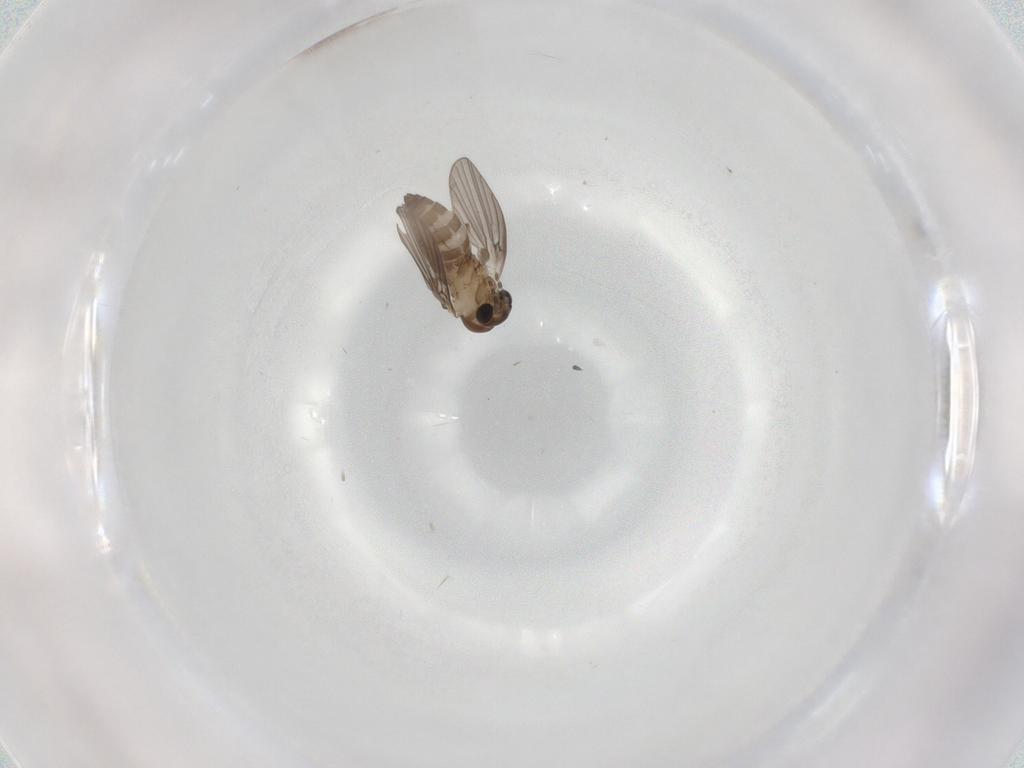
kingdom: Animalia
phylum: Arthropoda
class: Insecta
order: Diptera
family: Cecidomyiidae
